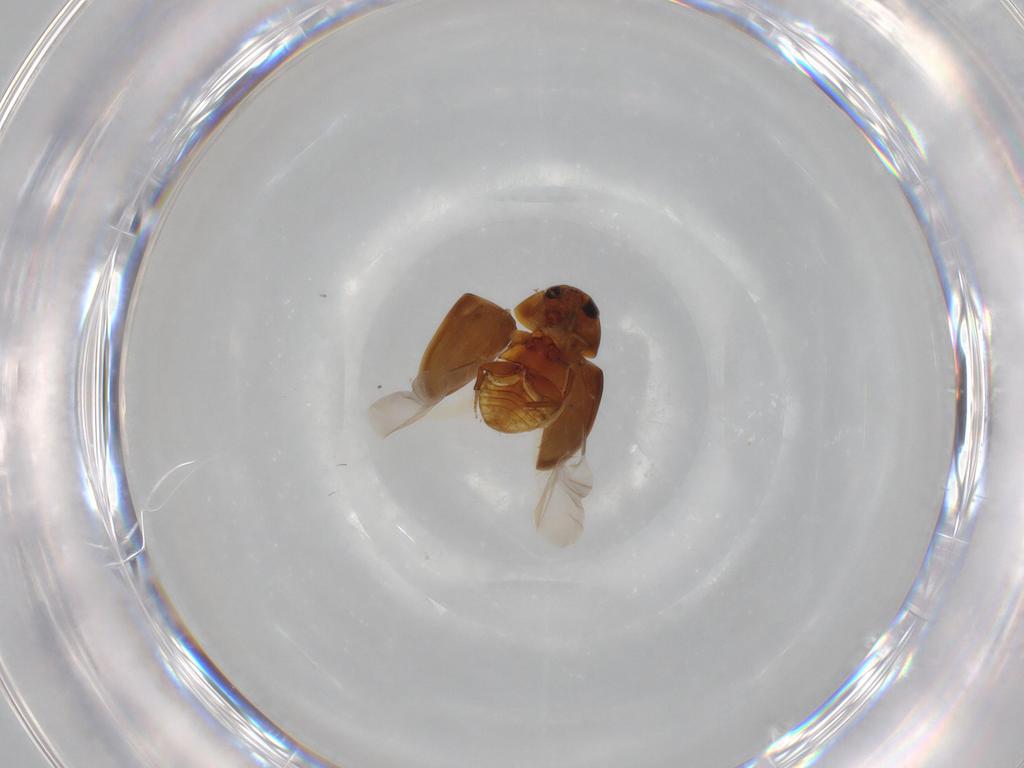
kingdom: Animalia
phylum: Arthropoda
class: Insecta
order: Coleoptera
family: Phalacridae
